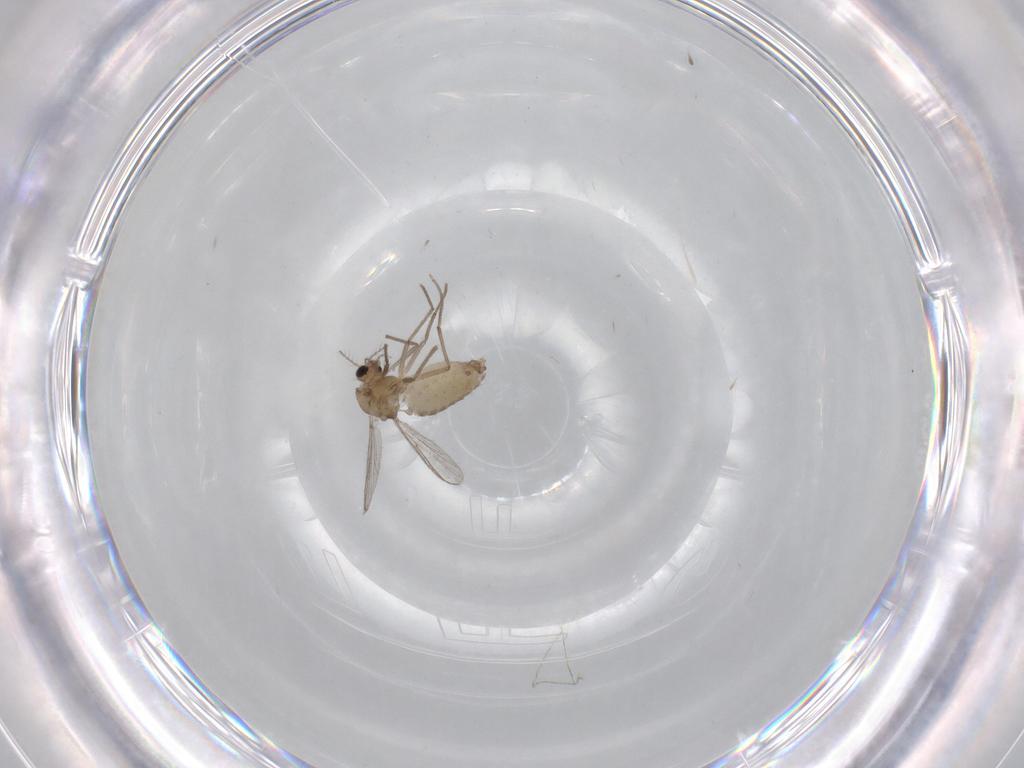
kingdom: Animalia
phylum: Arthropoda
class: Insecta
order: Diptera
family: Chironomidae
